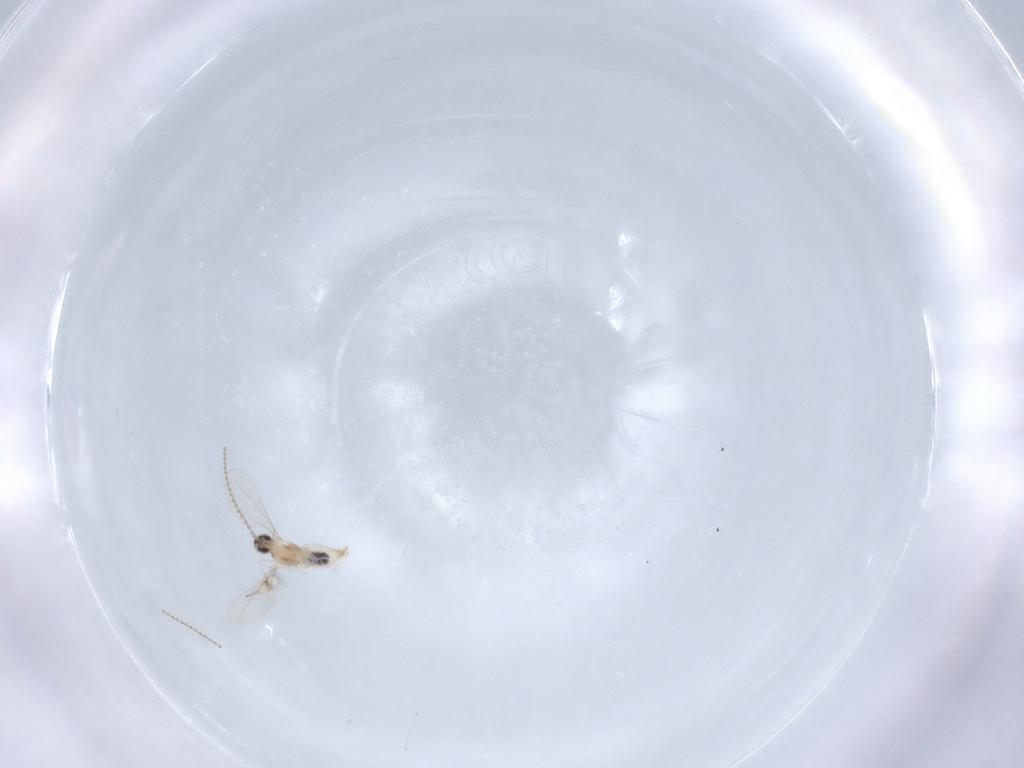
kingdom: Animalia
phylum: Arthropoda
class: Insecta
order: Diptera
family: Cecidomyiidae
